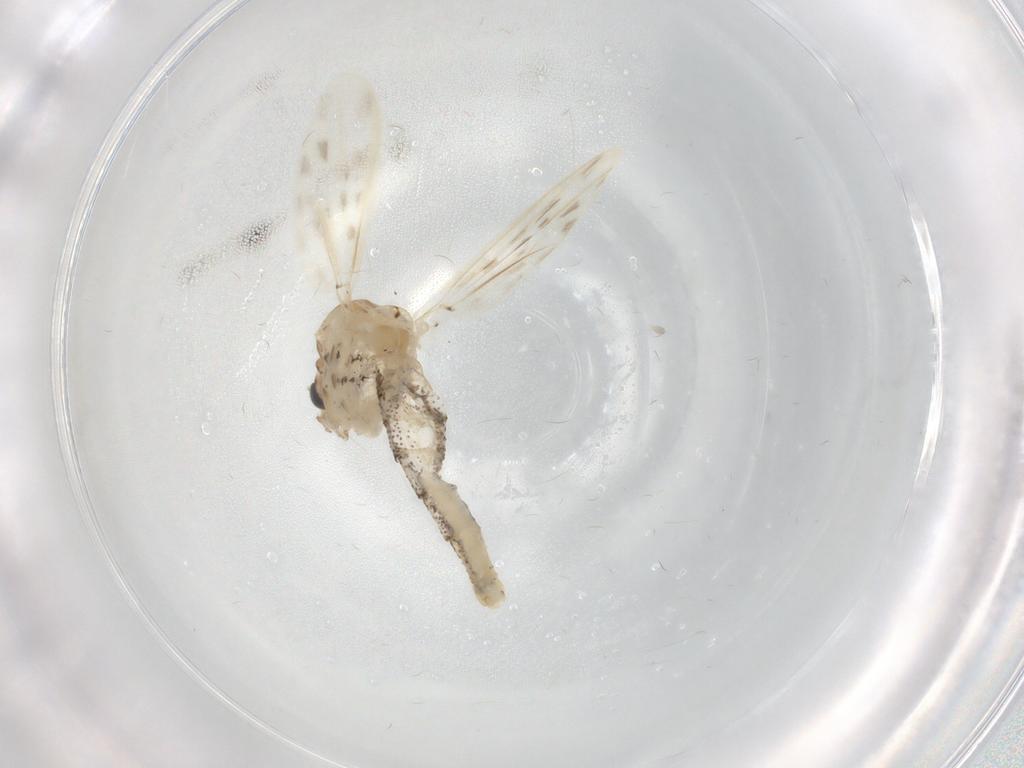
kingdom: Animalia
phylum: Arthropoda
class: Insecta
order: Diptera
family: Chaoboridae
